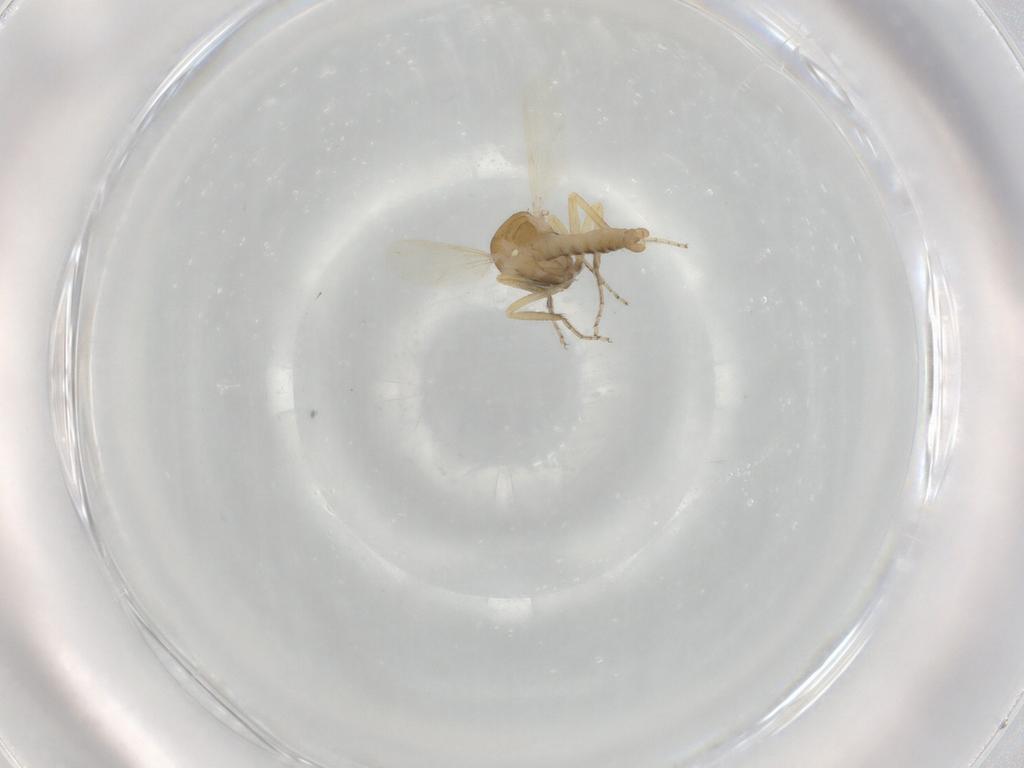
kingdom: Animalia
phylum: Arthropoda
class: Insecta
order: Diptera
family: Ceratopogonidae
